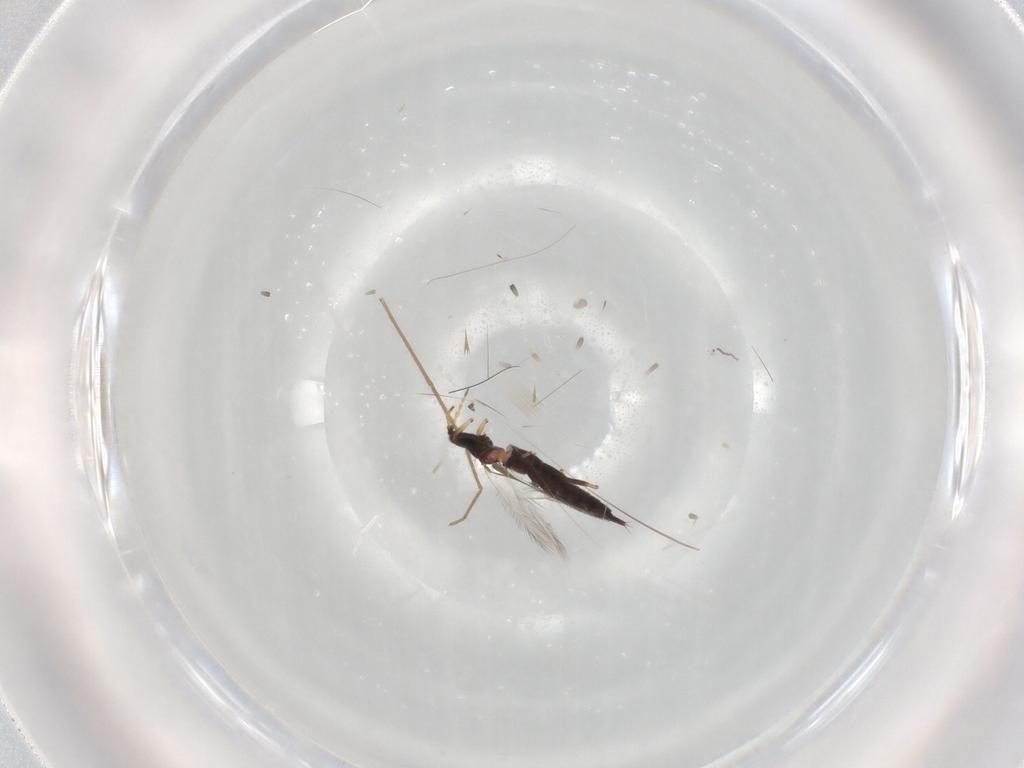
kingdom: Animalia
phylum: Arthropoda
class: Insecta
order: Thysanoptera
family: Phlaeothripidae
